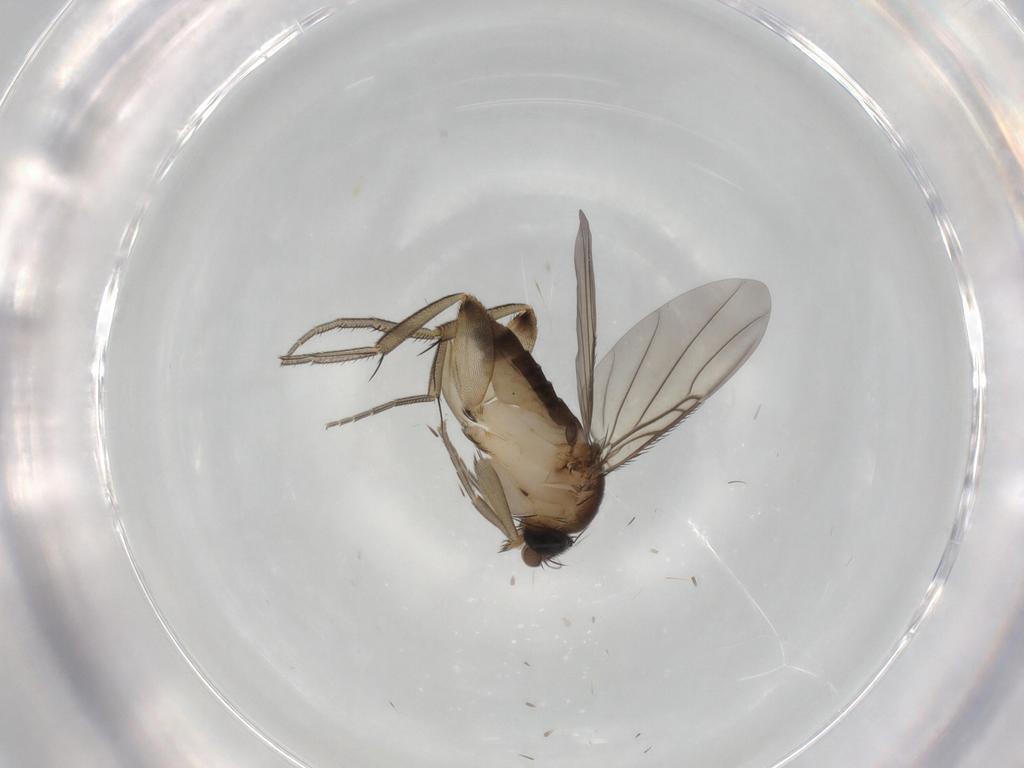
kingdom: Animalia
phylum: Arthropoda
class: Insecta
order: Diptera
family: Phoridae
